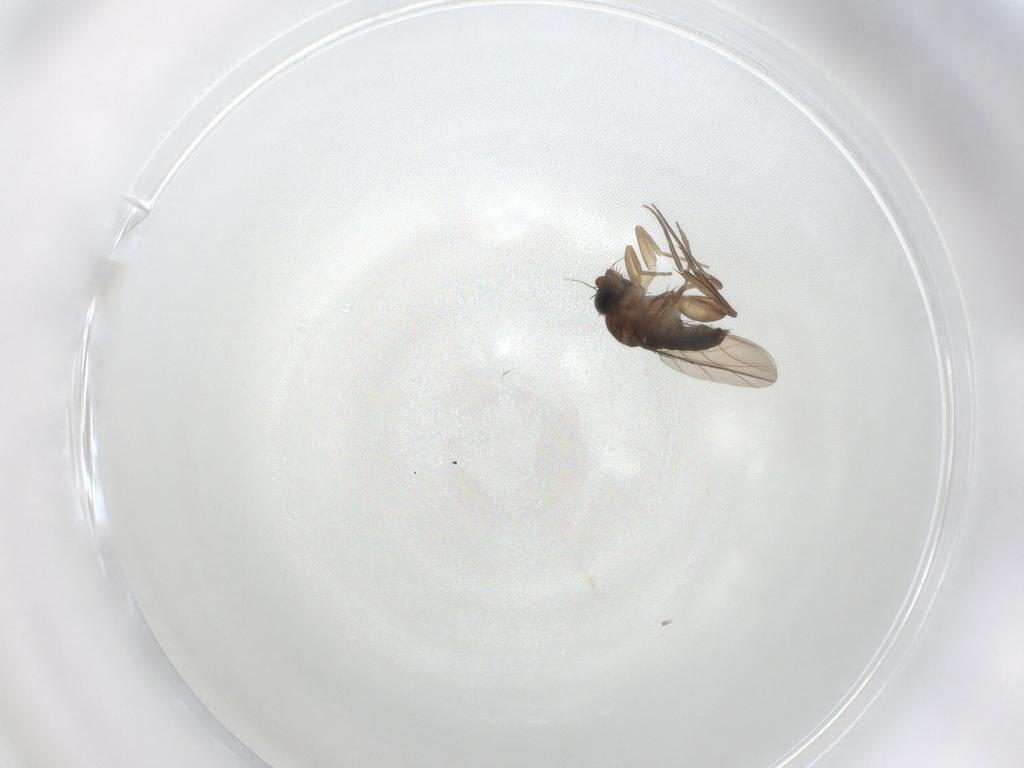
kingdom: Animalia
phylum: Arthropoda
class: Insecta
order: Diptera
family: Phoridae
